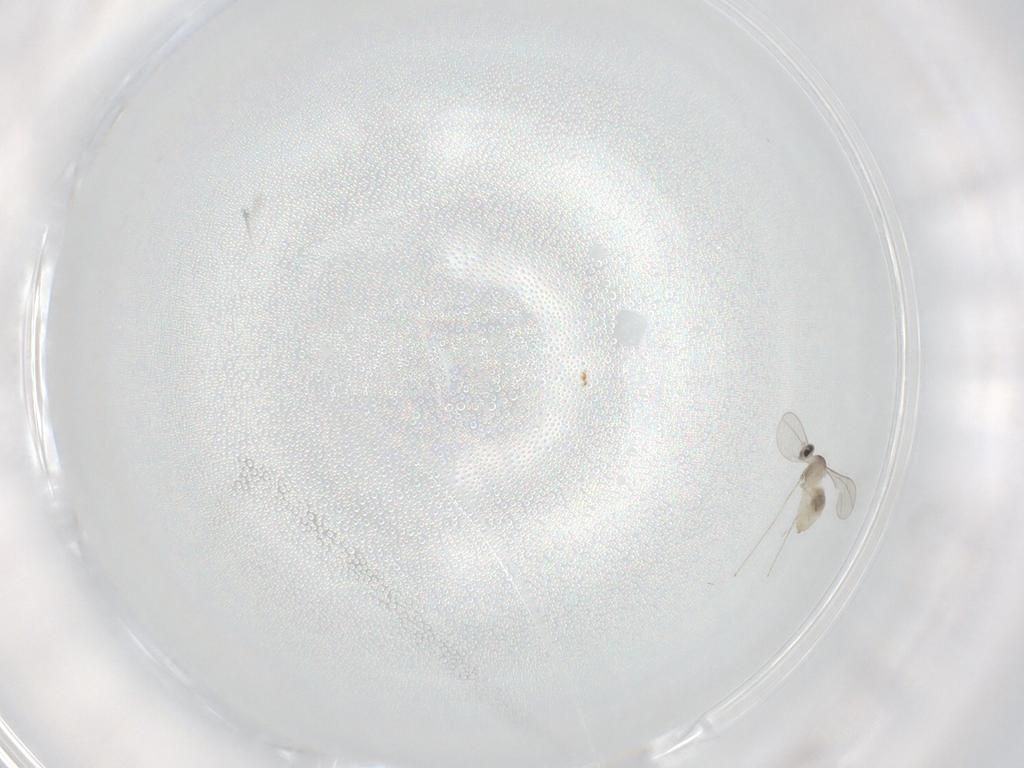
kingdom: Animalia
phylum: Arthropoda
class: Insecta
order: Diptera
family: Cecidomyiidae
